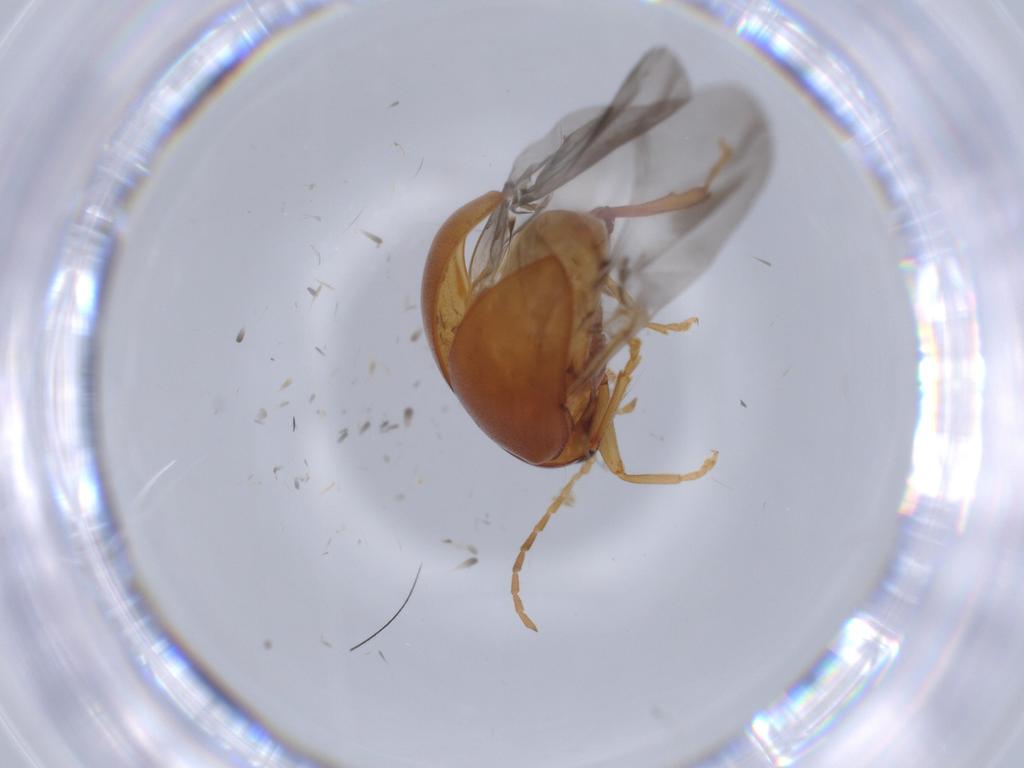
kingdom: Animalia
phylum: Arthropoda
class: Insecta
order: Coleoptera
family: Chrysomelidae
